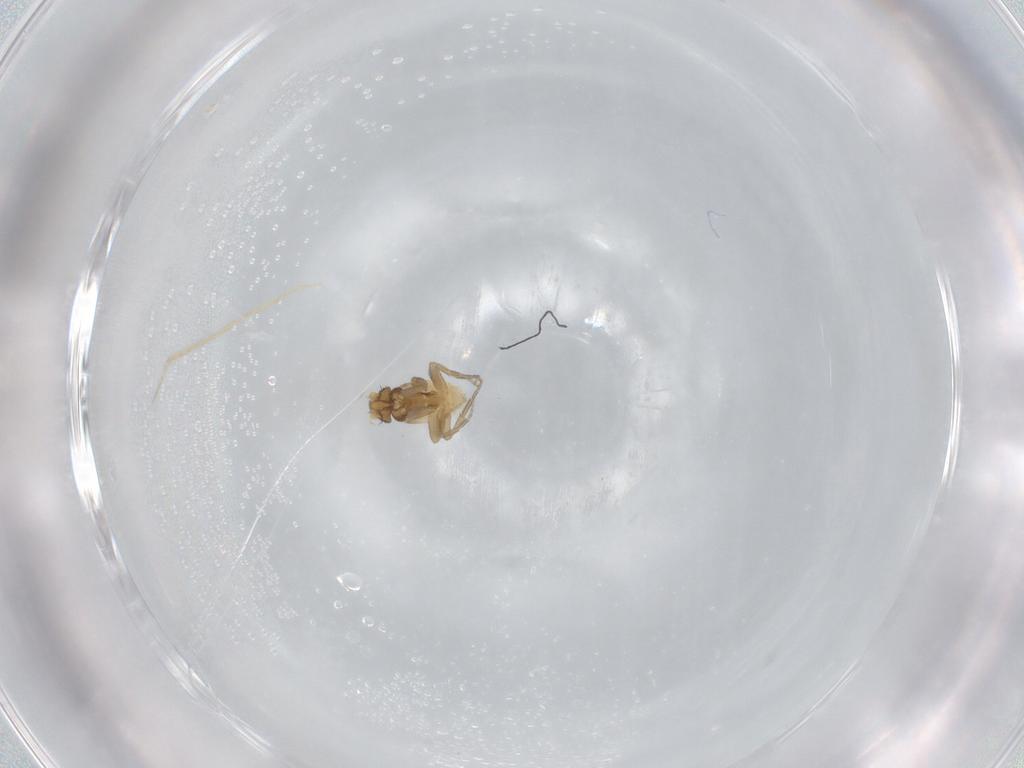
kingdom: Animalia
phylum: Arthropoda
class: Insecta
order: Diptera
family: Phoridae
